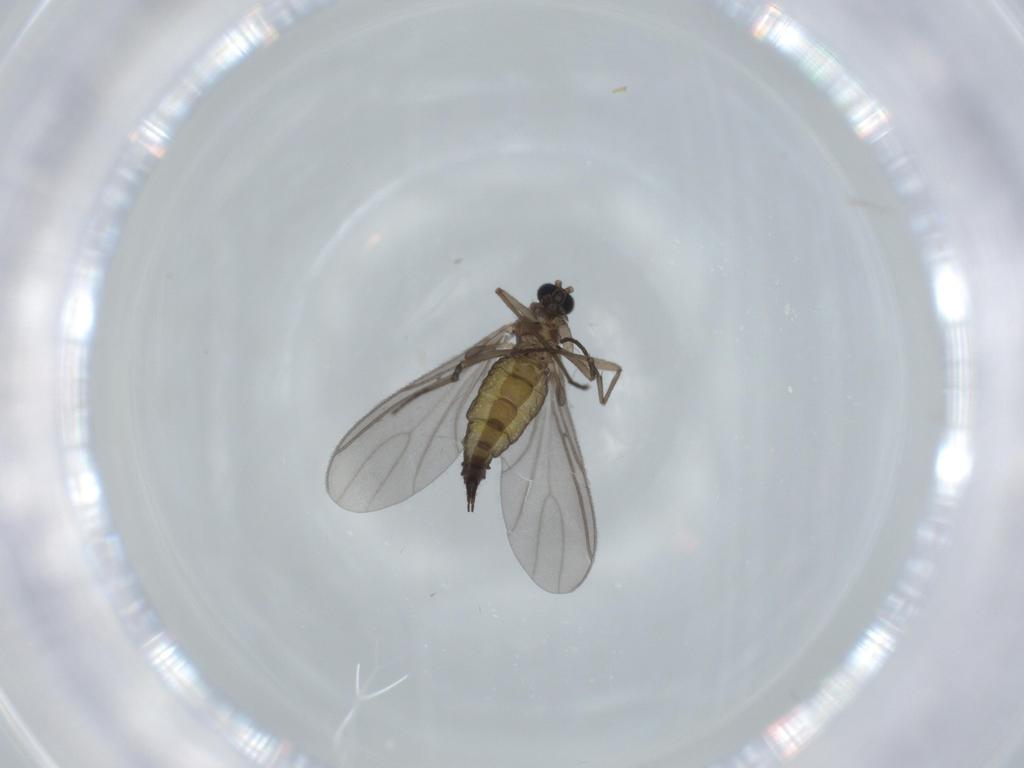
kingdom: Animalia
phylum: Arthropoda
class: Insecta
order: Diptera
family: Sciaridae
